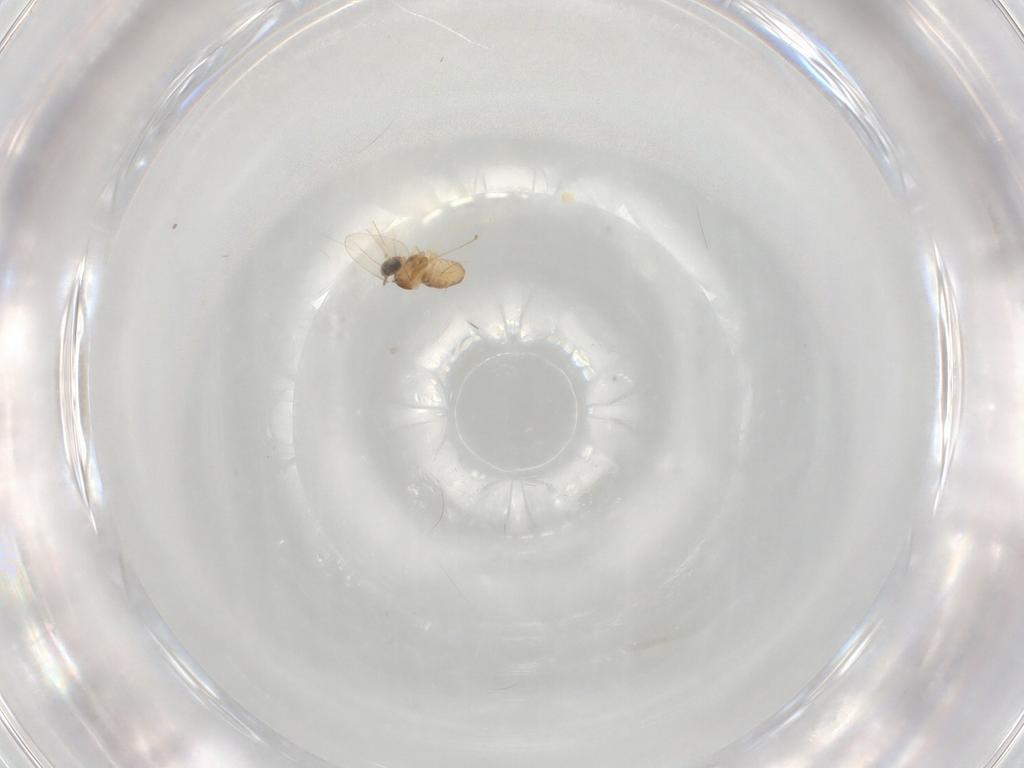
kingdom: Animalia
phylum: Arthropoda
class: Insecta
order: Diptera
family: Cecidomyiidae
